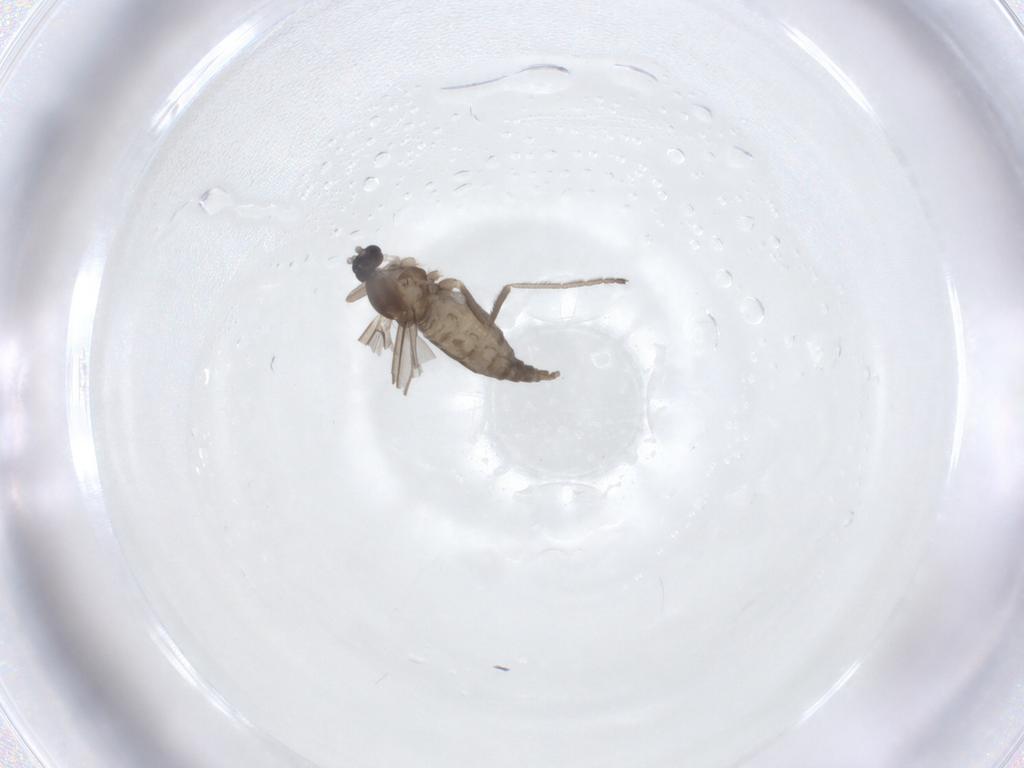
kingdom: Animalia
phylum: Arthropoda
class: Insecta
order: Diptera
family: Cecidomyiidae
